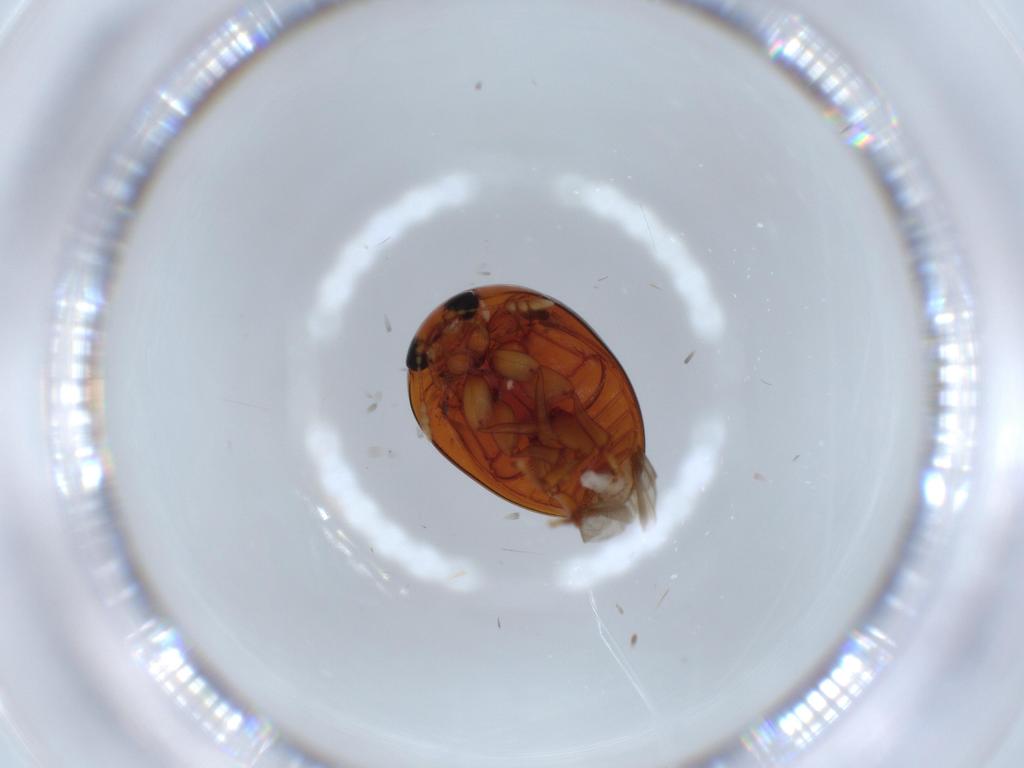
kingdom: Animalia
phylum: Arthropoda
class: Insecta
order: Coleoptera
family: Phalacridae
